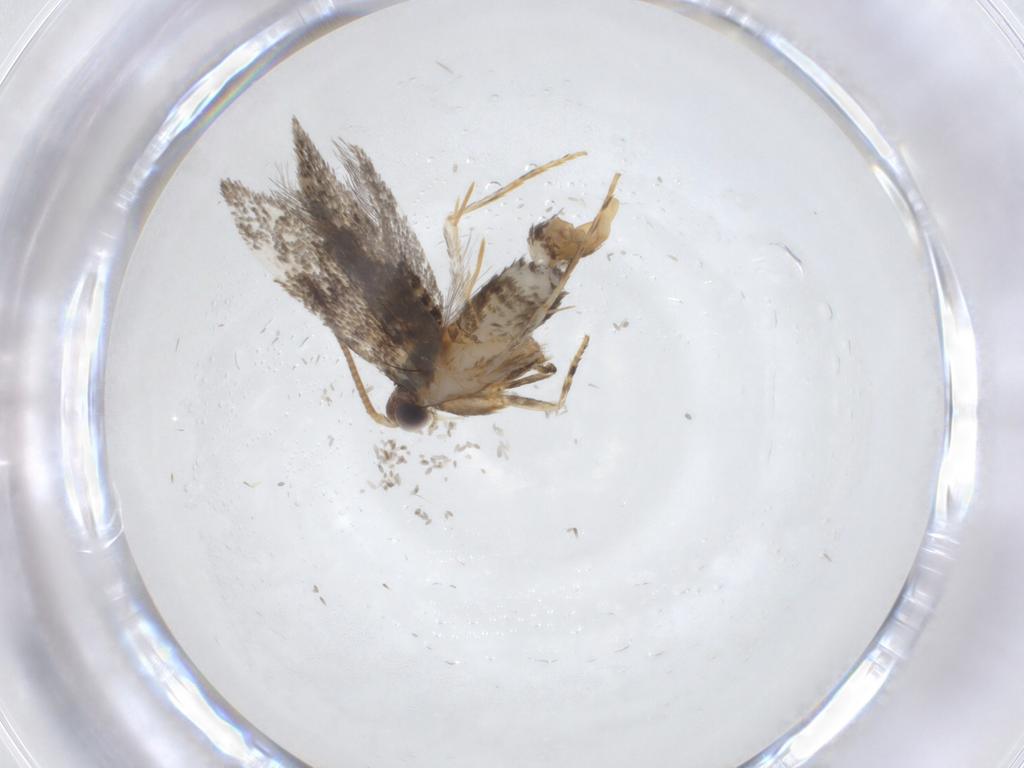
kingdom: Animalia
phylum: Arthropoda
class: Insecta
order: Lepidoptera
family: Tineidae
